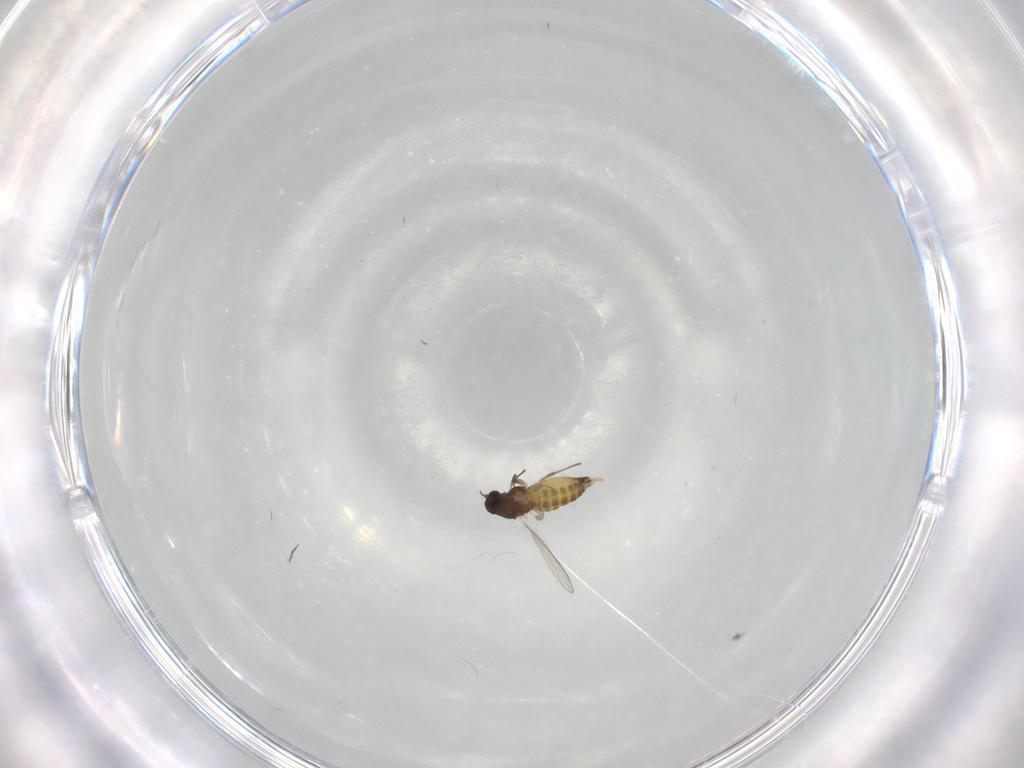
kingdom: Animalia
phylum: Arthropoda
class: Insecta
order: Diptera
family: Chironomidae
